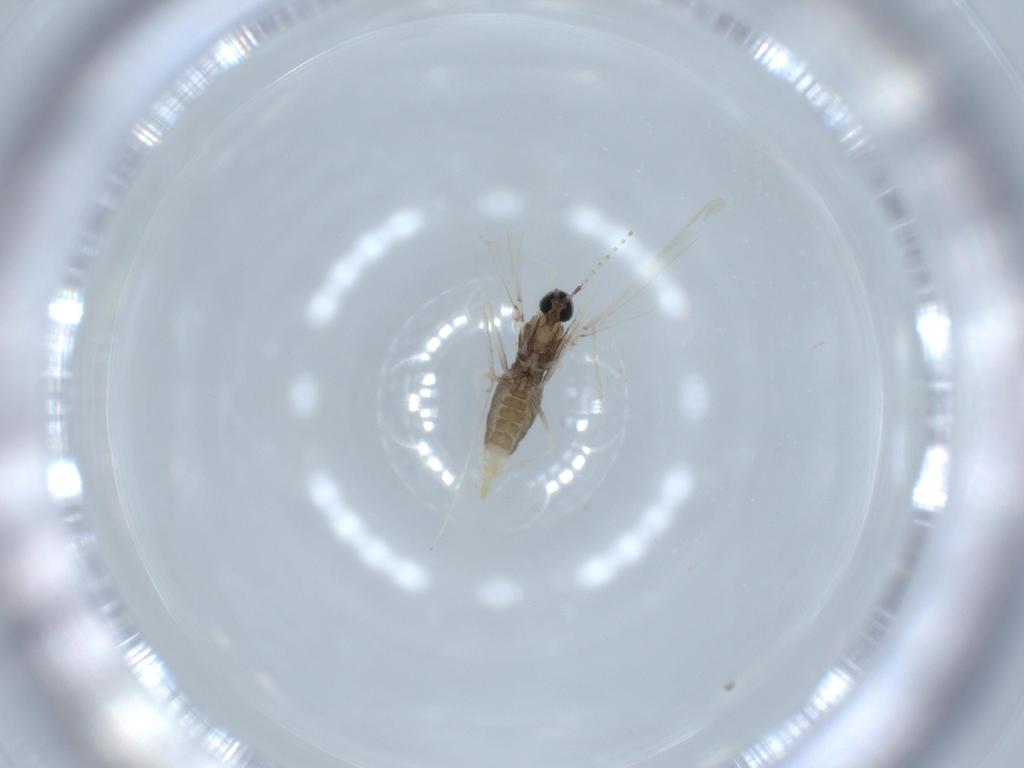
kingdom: Animalia
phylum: Arthropoda
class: Insecta
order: Diptera
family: Cecidomyiidae
